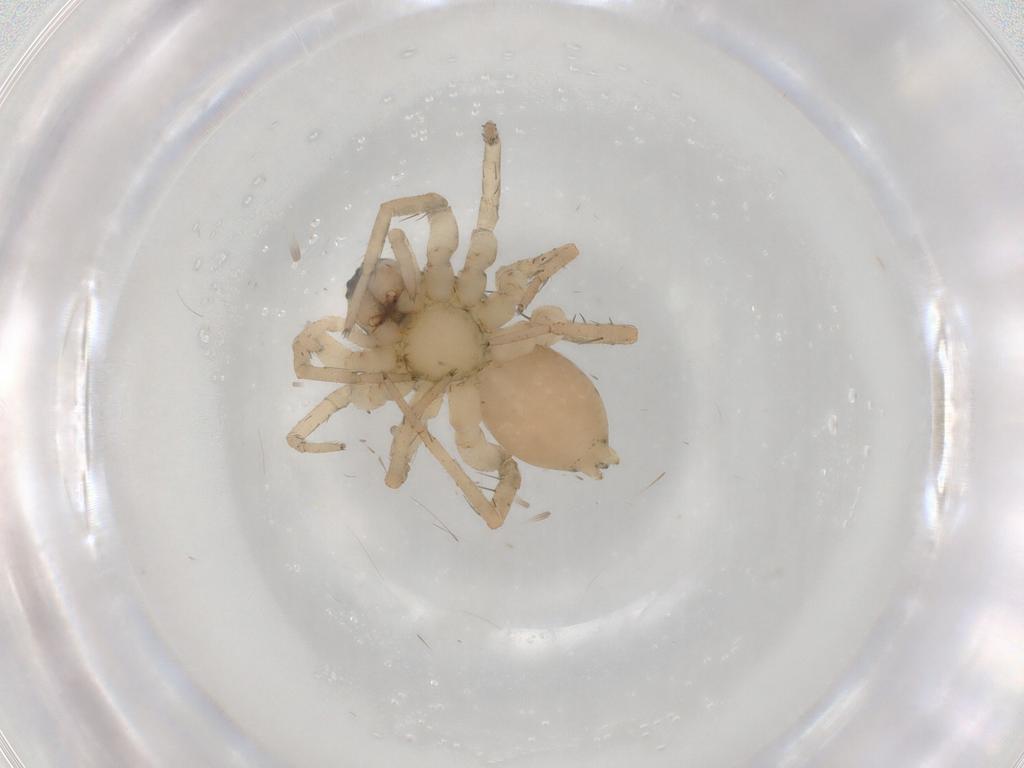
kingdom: Animalia
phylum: Arthropoda
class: Arachnida
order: Araneae
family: Lycosidae
